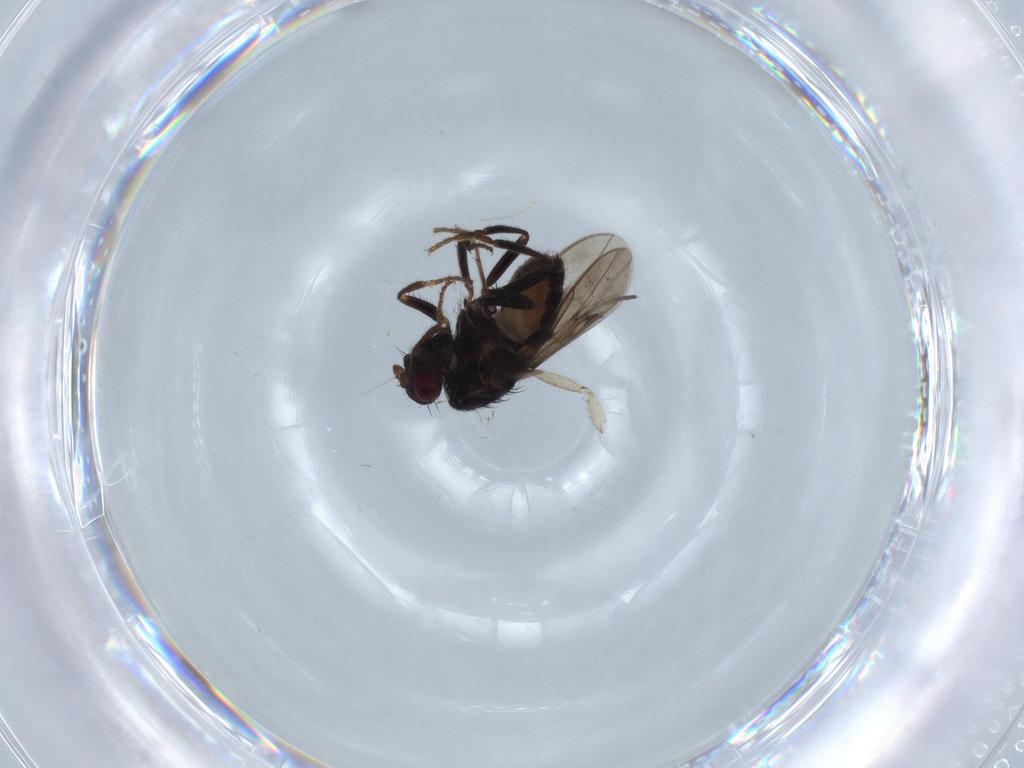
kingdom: Animalia
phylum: Arthropoda
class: Insecta
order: Diptera
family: Sciaridae
